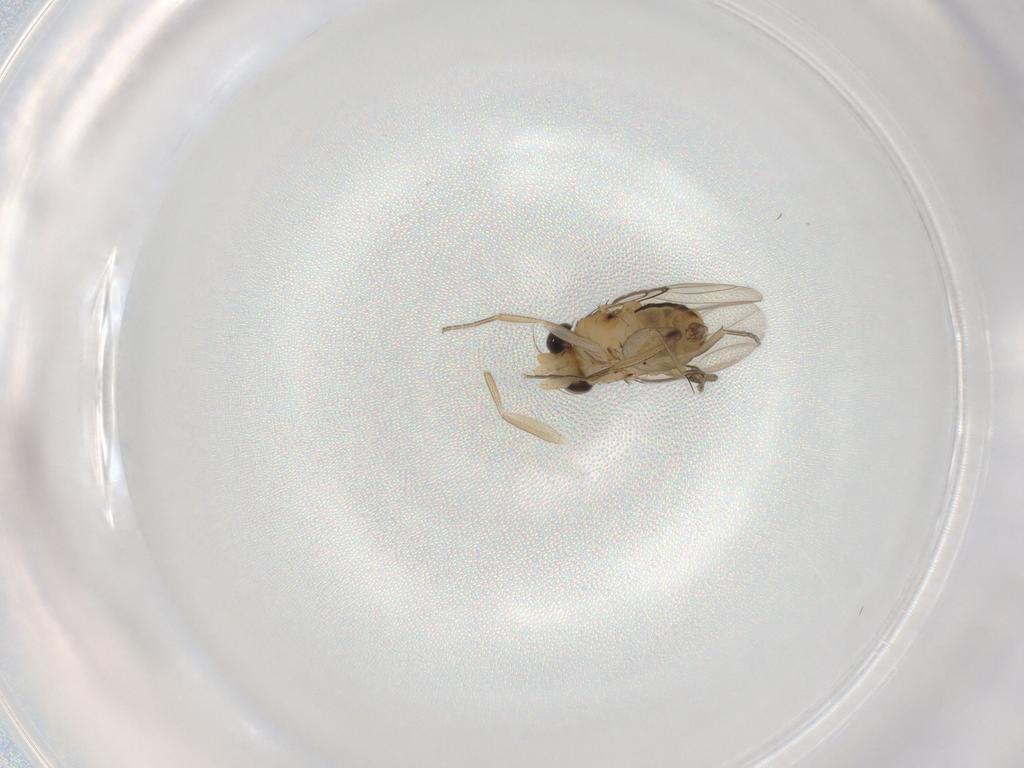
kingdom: Animalia
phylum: Arthropoda
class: Insecta
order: Diptera
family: Phoridae
